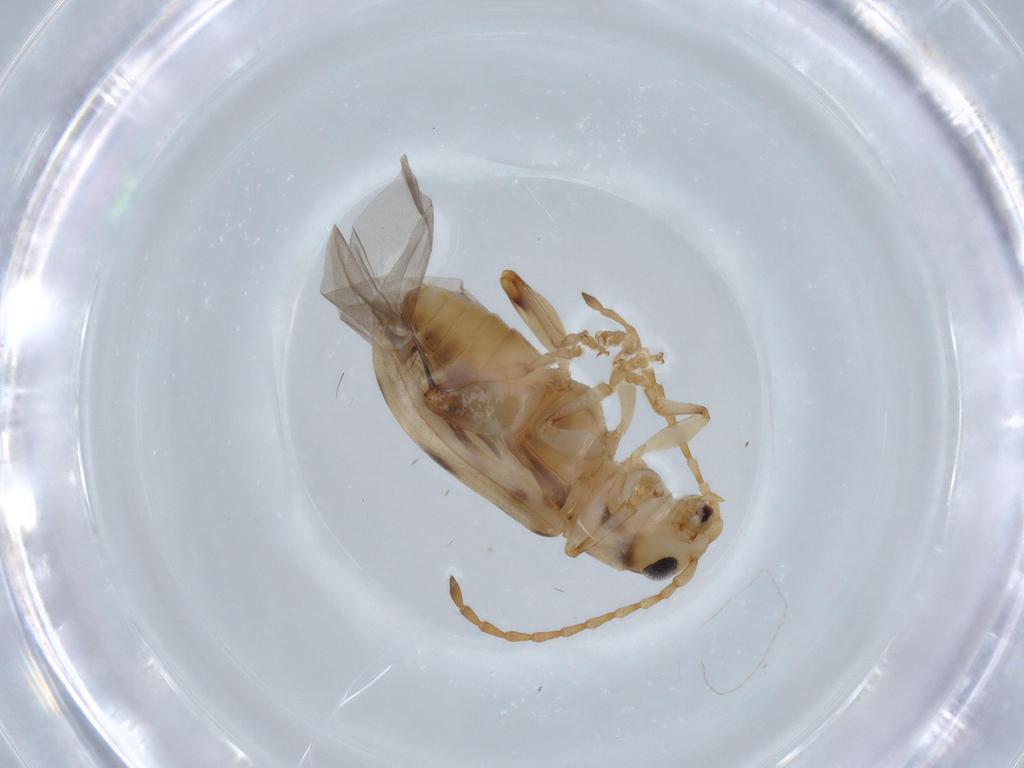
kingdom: Animalia
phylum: Arthropoda
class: Insecta
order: Coleoptera
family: Chrysomelidae
